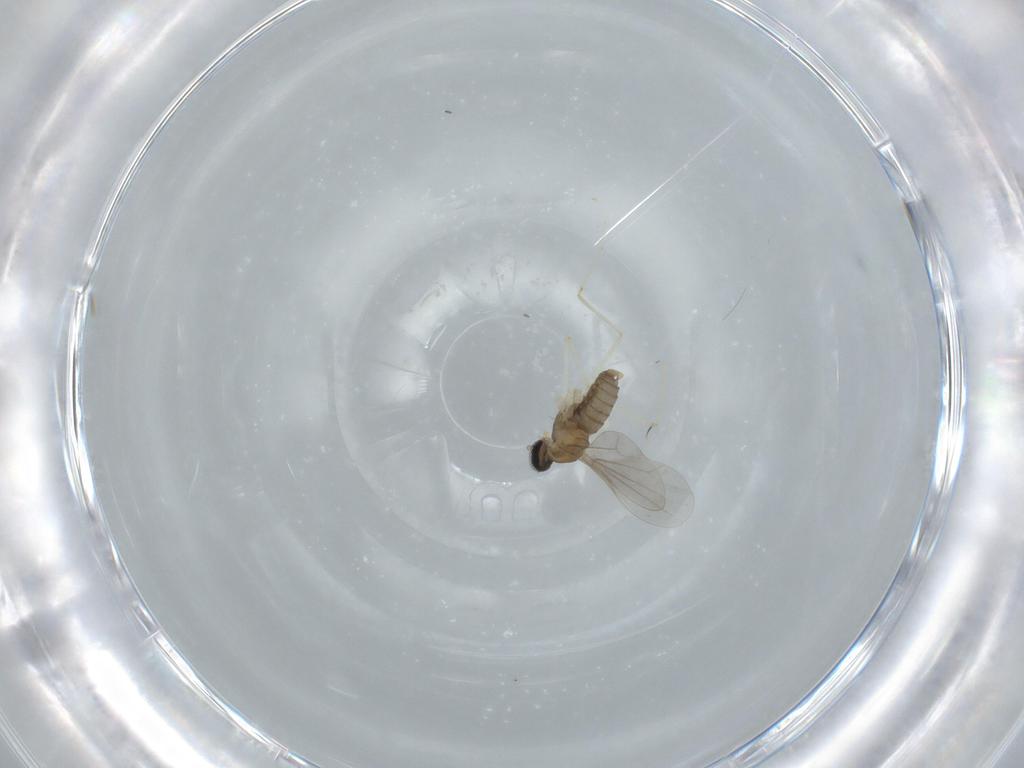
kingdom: Animalia
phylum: Arthropoda
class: Insecta
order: Diptera
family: Cecidomyiidae
